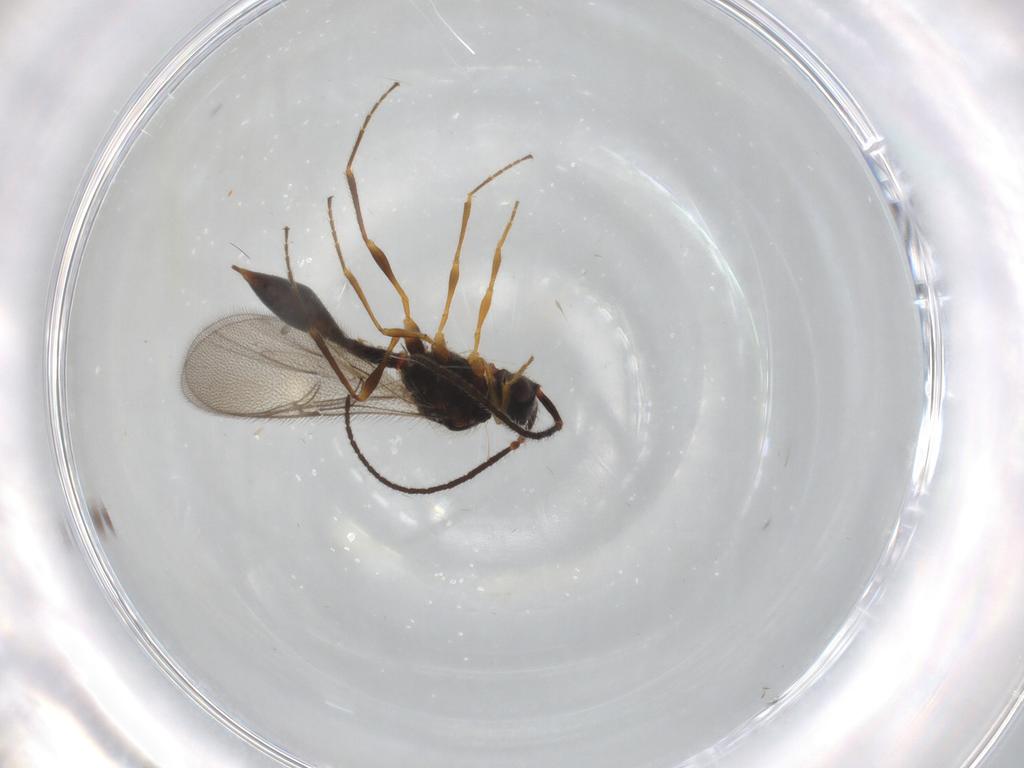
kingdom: Animalia
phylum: Arthropoda
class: Insecta
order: Hymenoptera
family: Diapriidae
